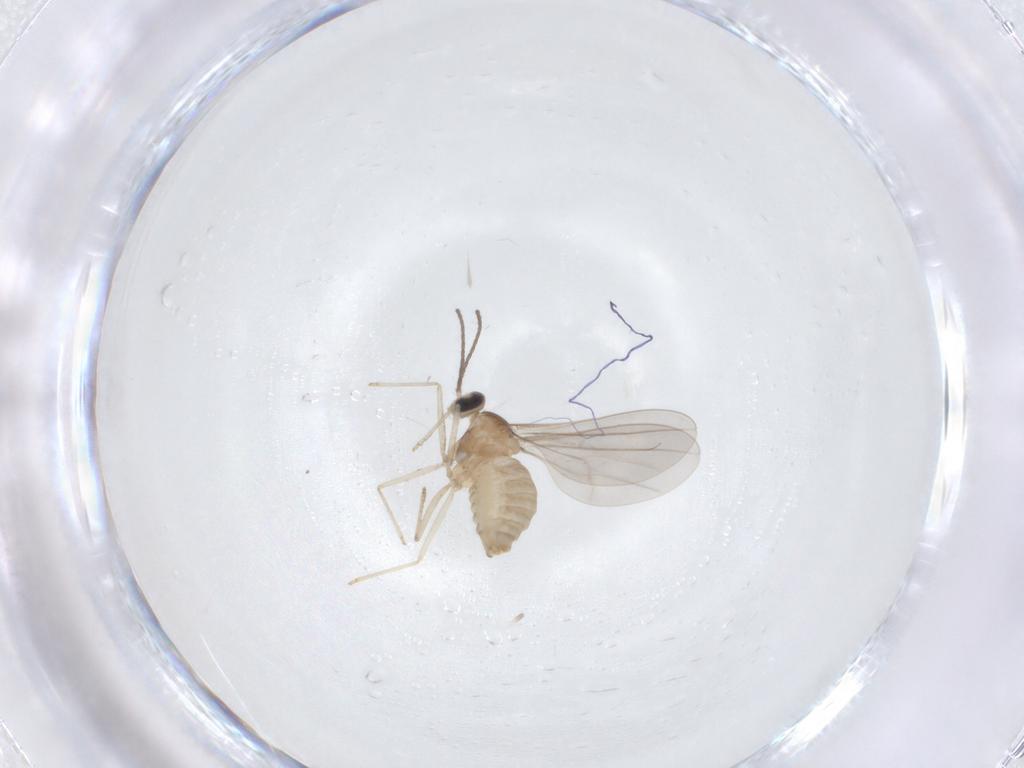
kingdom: Animalia
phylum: Arthropoda
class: Insecta
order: Diptera
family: Cecidomyiidae
